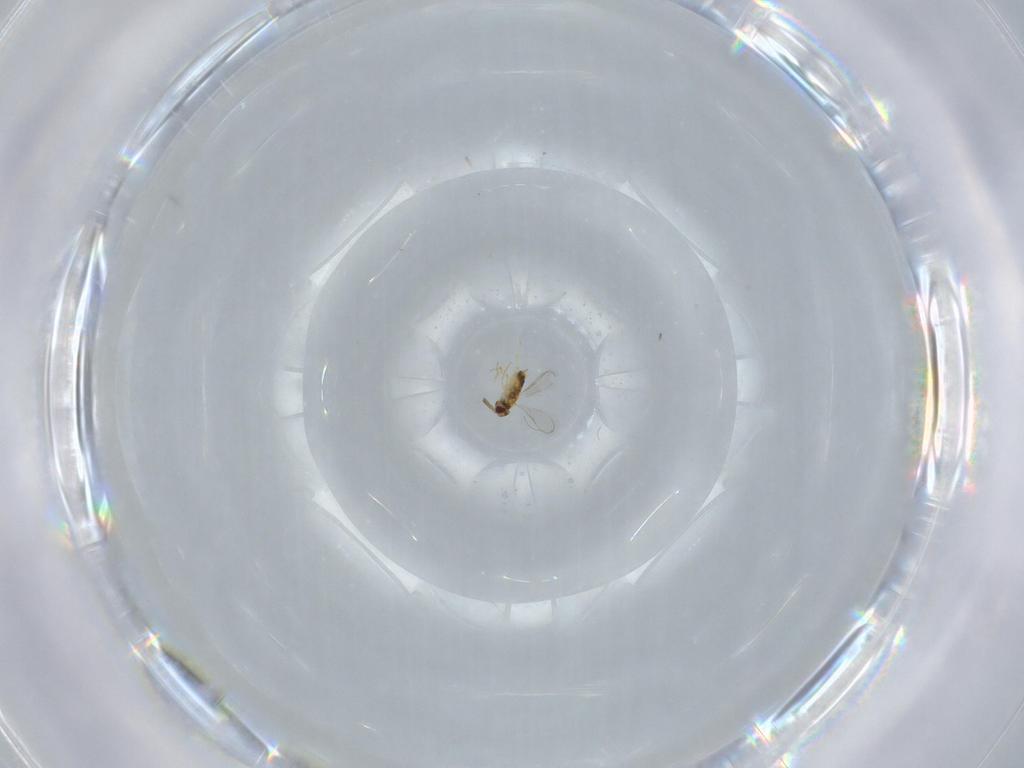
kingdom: Animalia
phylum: Arthropoda
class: Insecta
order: Hymenoptera
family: Aphelinidae
